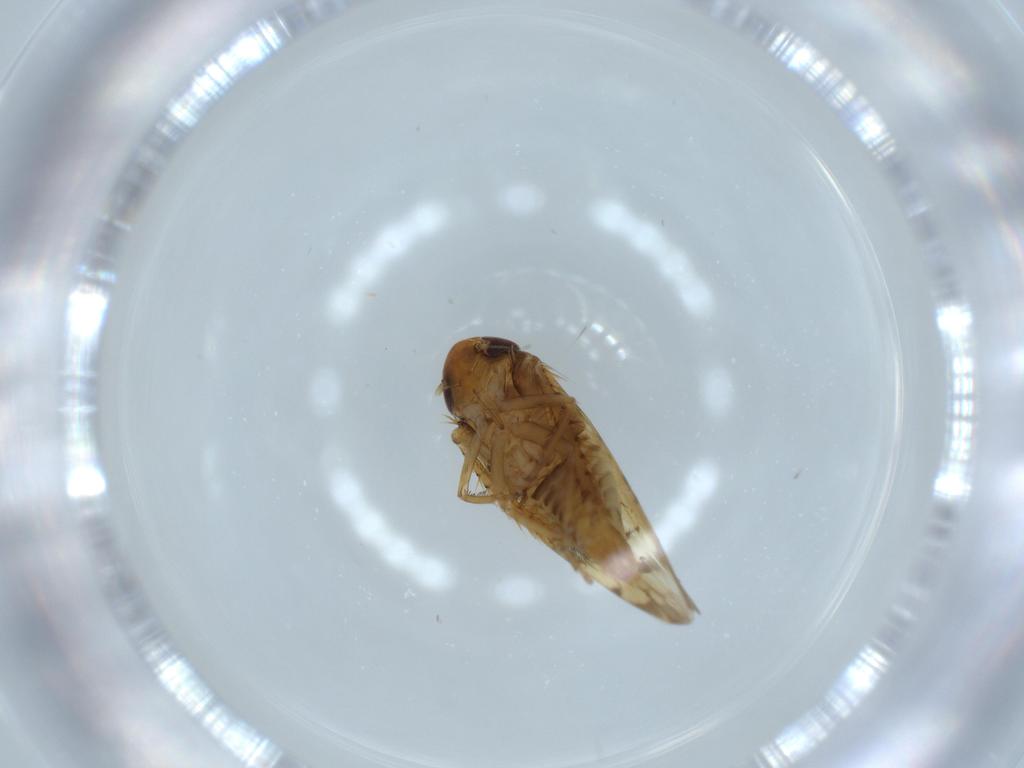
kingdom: Animalia
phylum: Arthropoda
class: Insecta
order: Hemiptera
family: Cicadellidae
